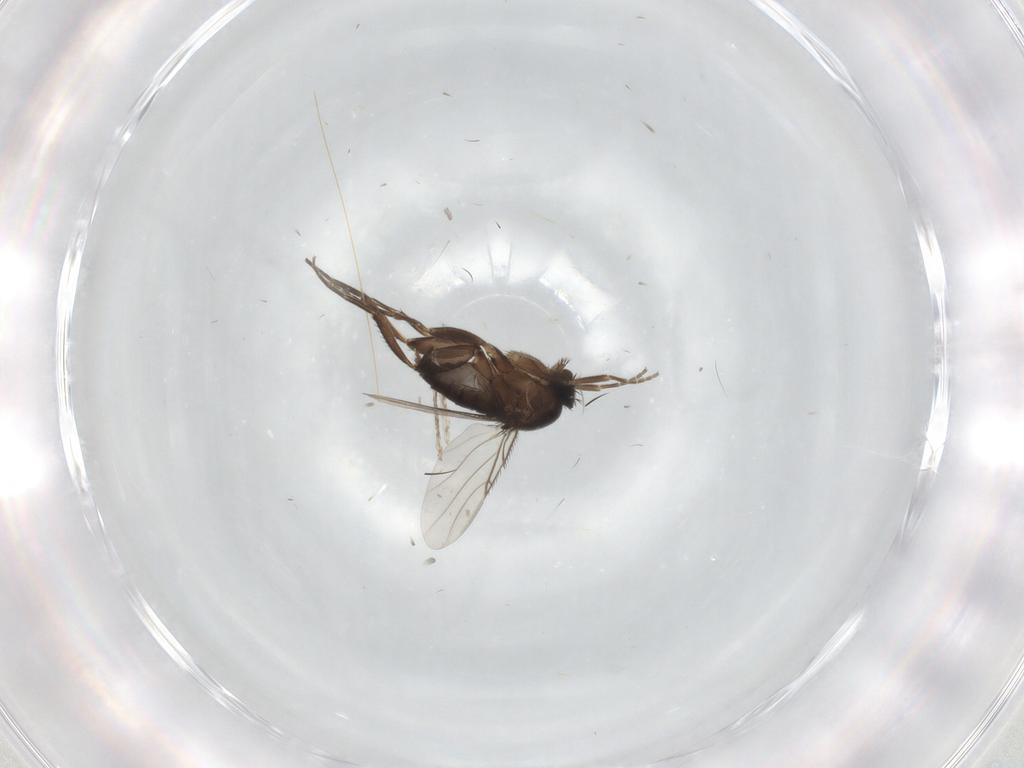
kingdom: Animalia
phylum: Arthropoda
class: Insecta
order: Diptera
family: Phoridae
